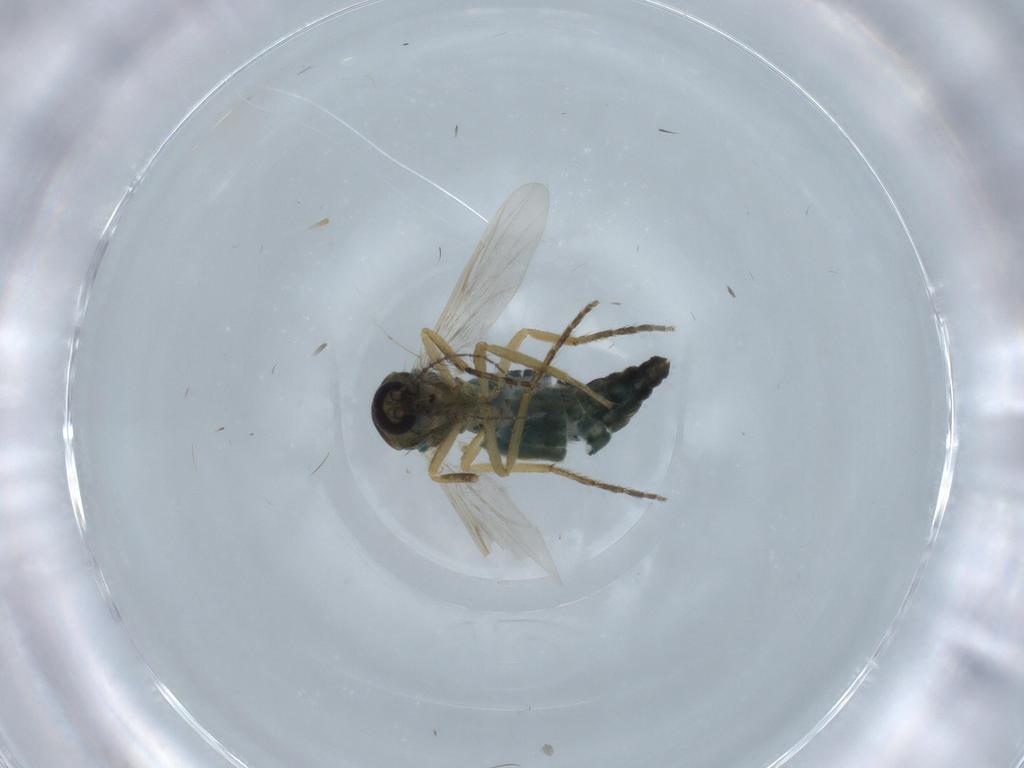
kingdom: Animalia
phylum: Arthropoda
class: Insecta
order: Diptera
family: Ceratopogonidae
